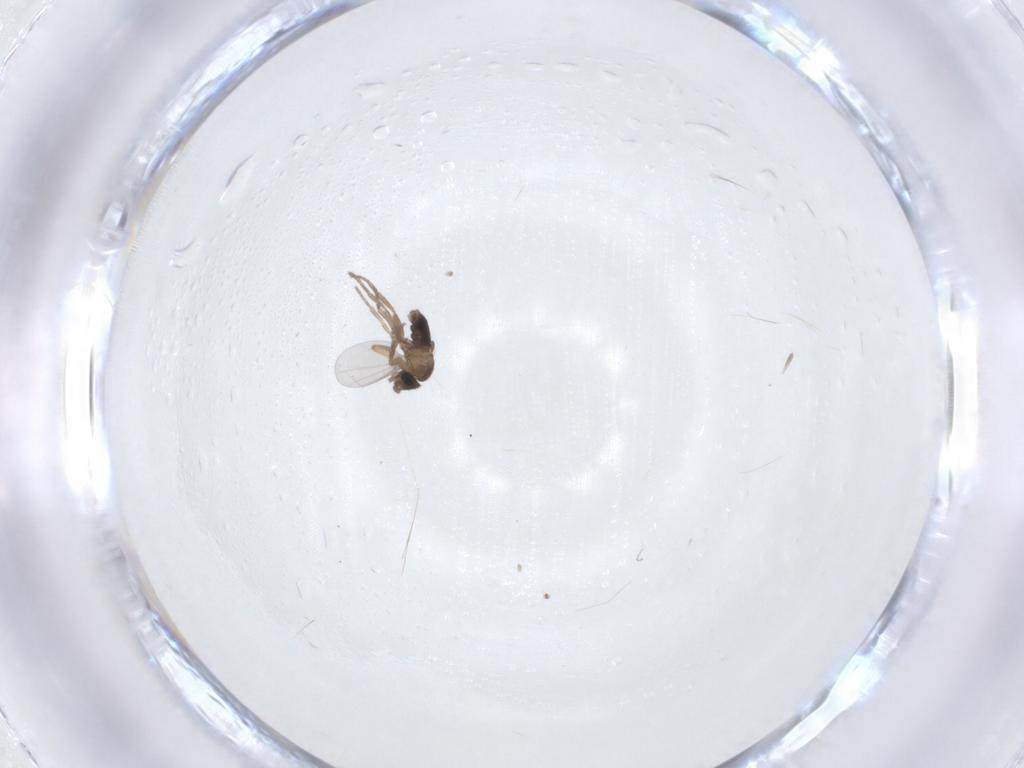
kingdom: Animalia
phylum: Arthropoda
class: Insecta
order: Diptera
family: Phoridae
